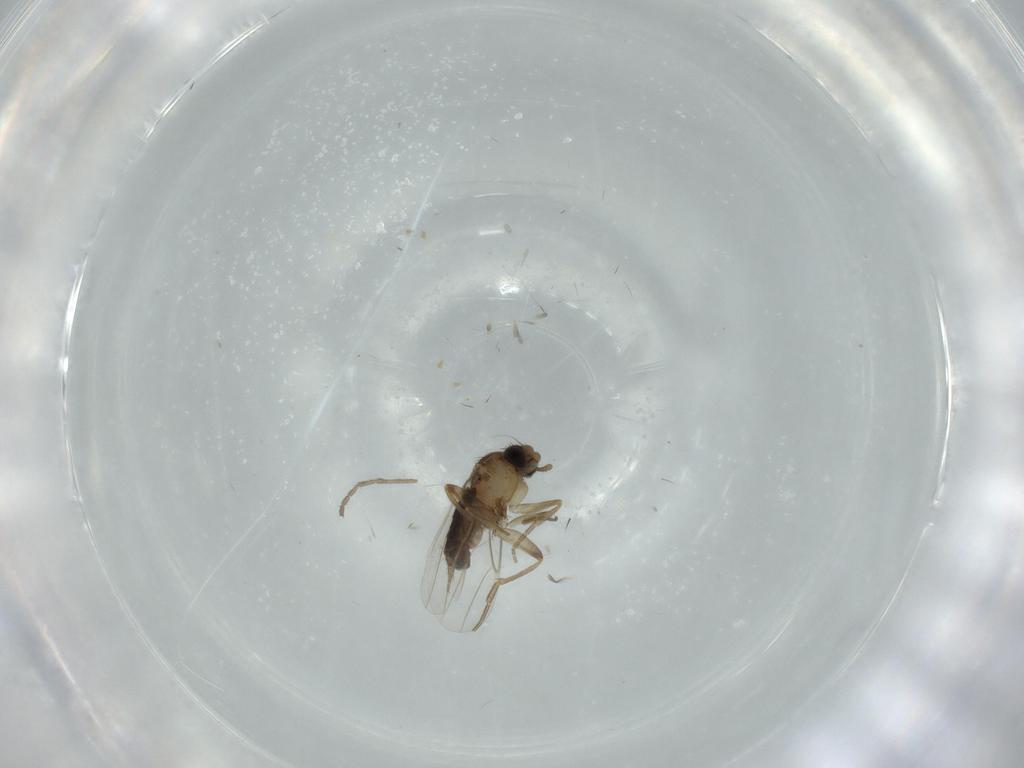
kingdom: Animalia
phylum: Arthropoda
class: Insecta
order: Diptera
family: Phoridae
